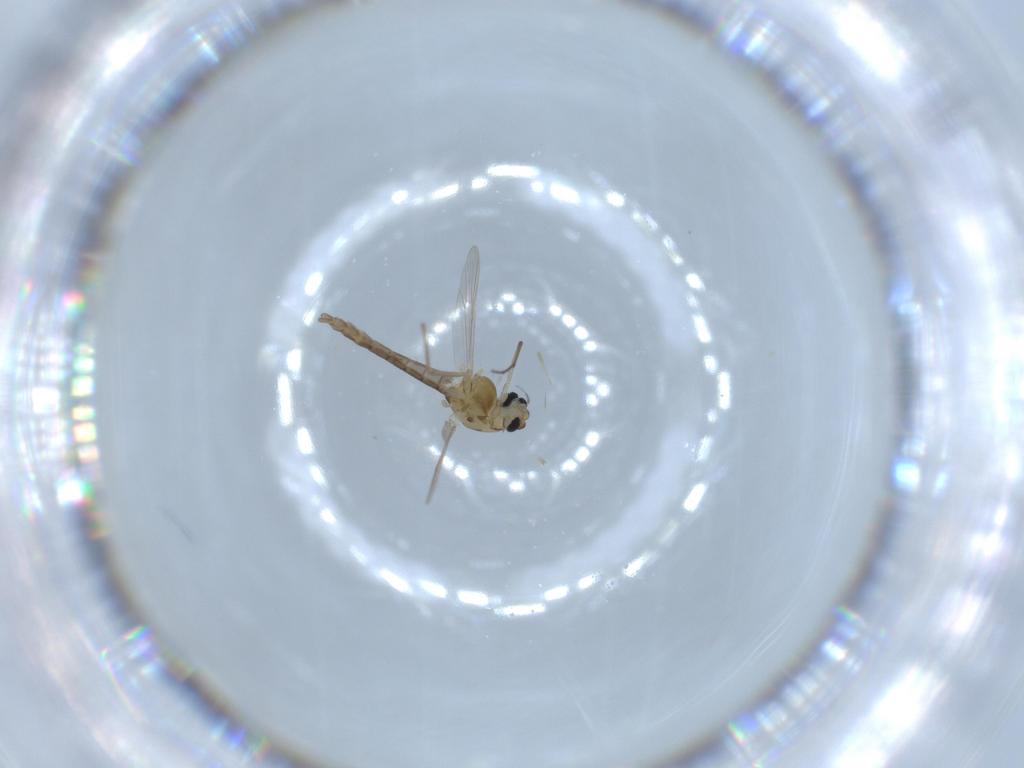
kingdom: Animalia
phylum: Arthropoda
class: Insecta
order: Diptera
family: Chironomidae
